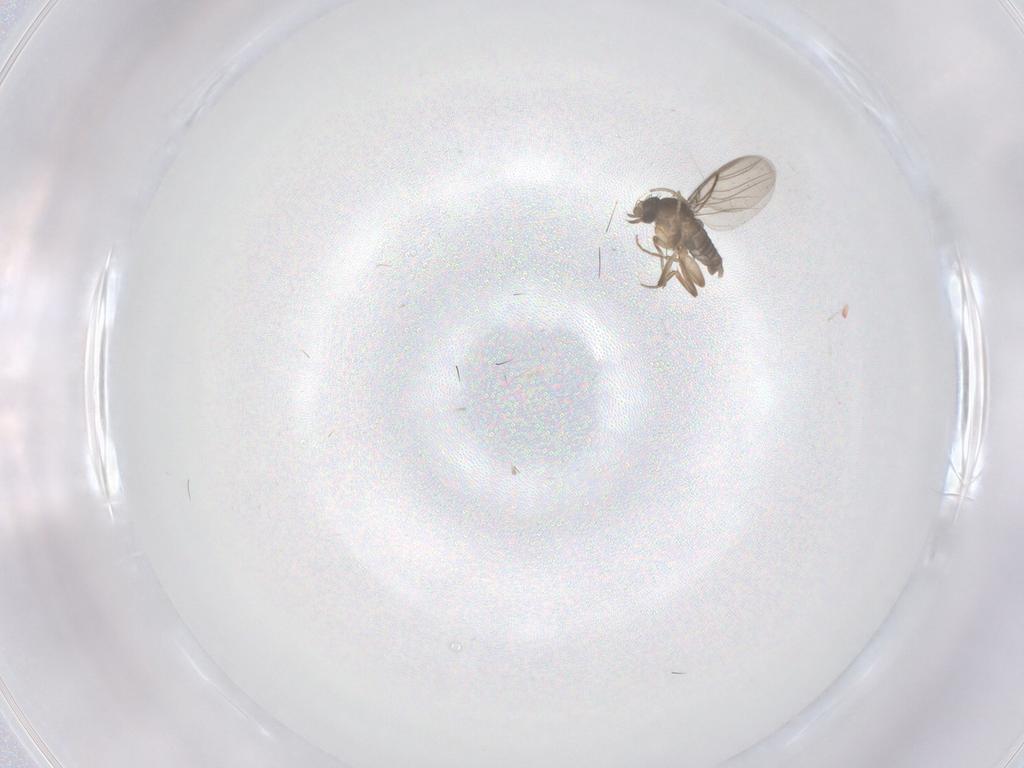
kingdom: Animalia
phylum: Arthropoda
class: Insecta
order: Diptera
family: Phoridae
